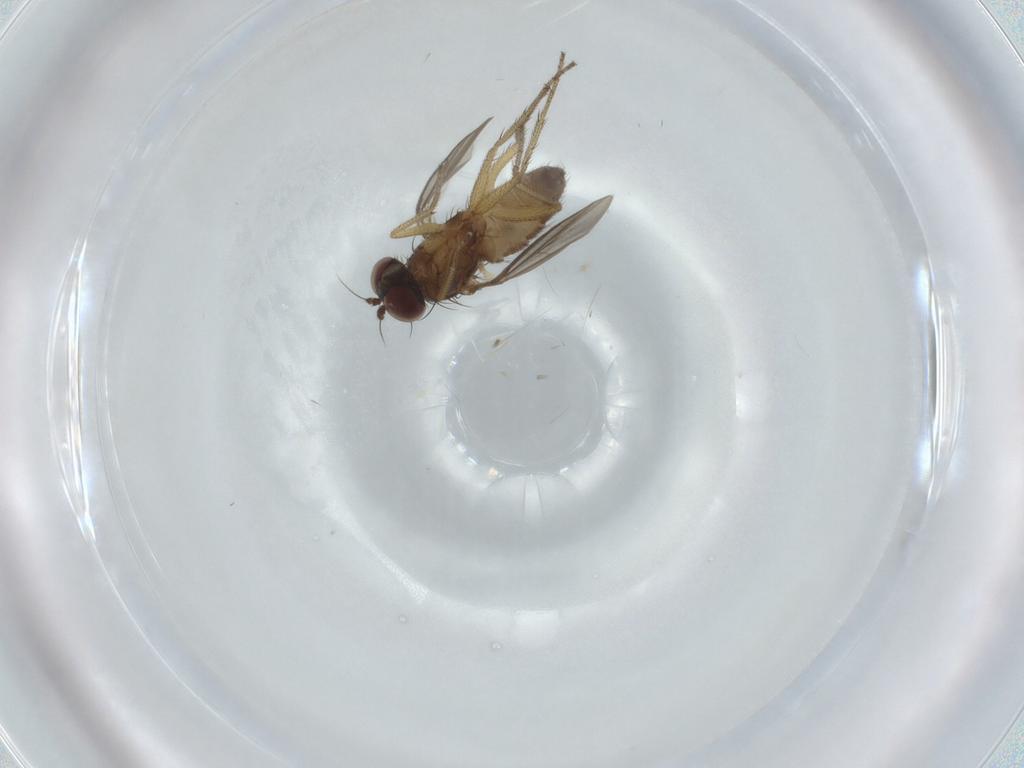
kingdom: Animalia
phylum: Arthropoda
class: Insecta
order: Diptera
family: Dolichopodidae
